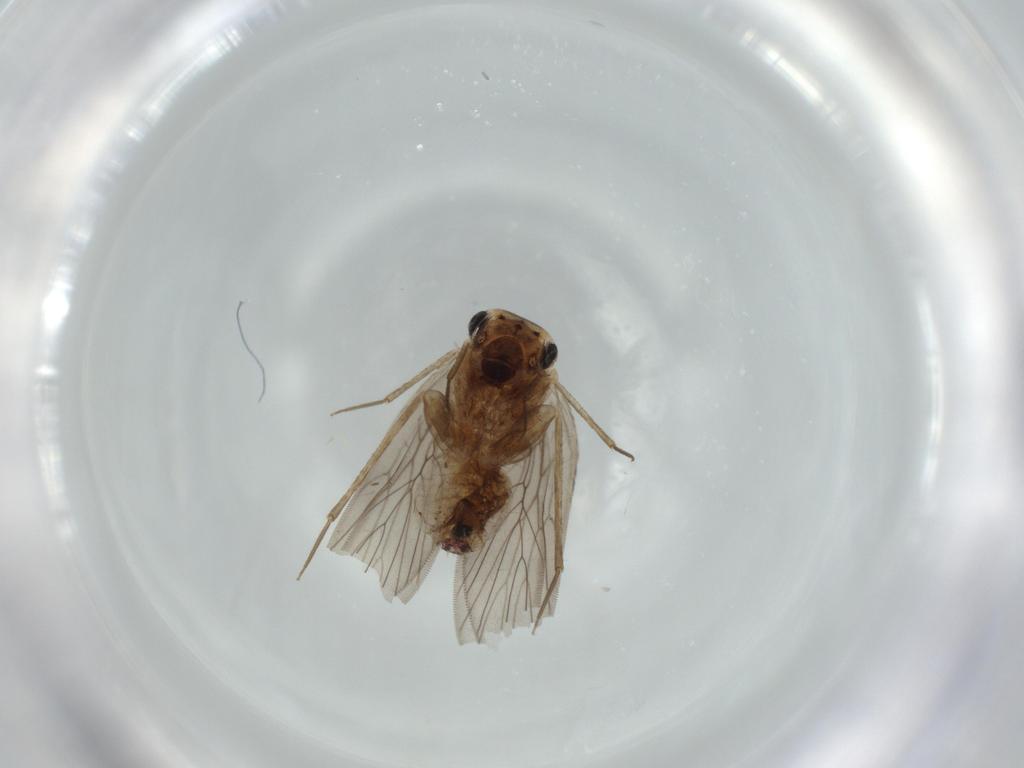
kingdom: Animalia
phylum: Arthropoda
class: Insecta
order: Psocodea
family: Lepidopsocidae
